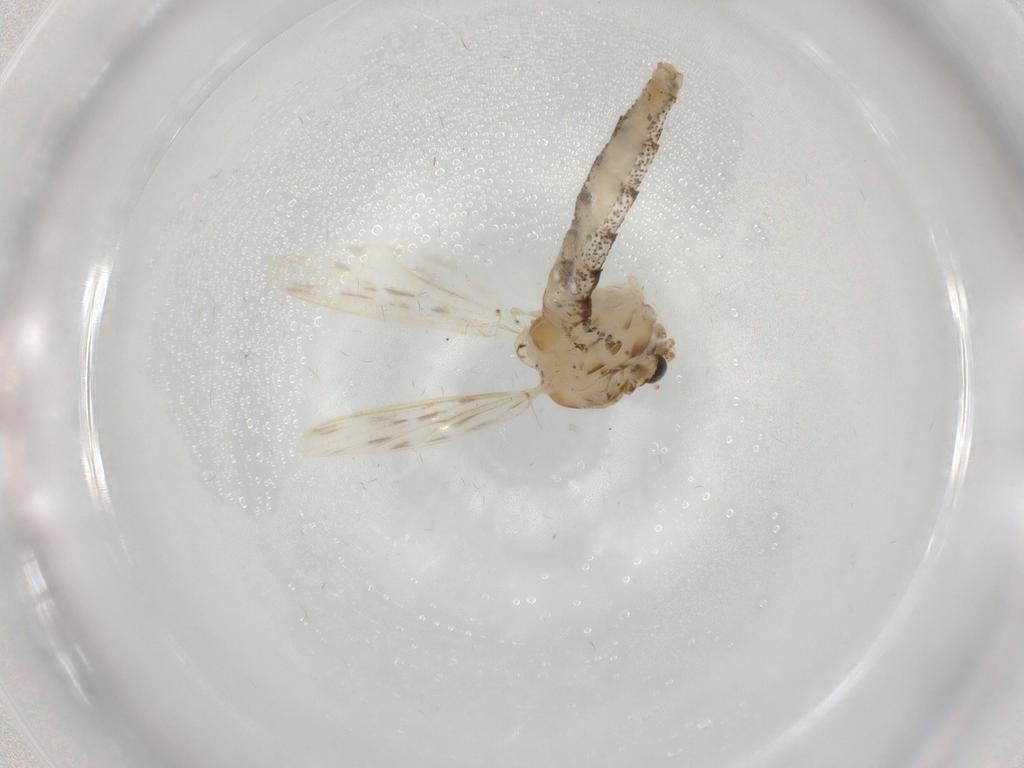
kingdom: Animalia
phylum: Arthropoda
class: Insecta
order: Diptera
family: Chaoboridae
